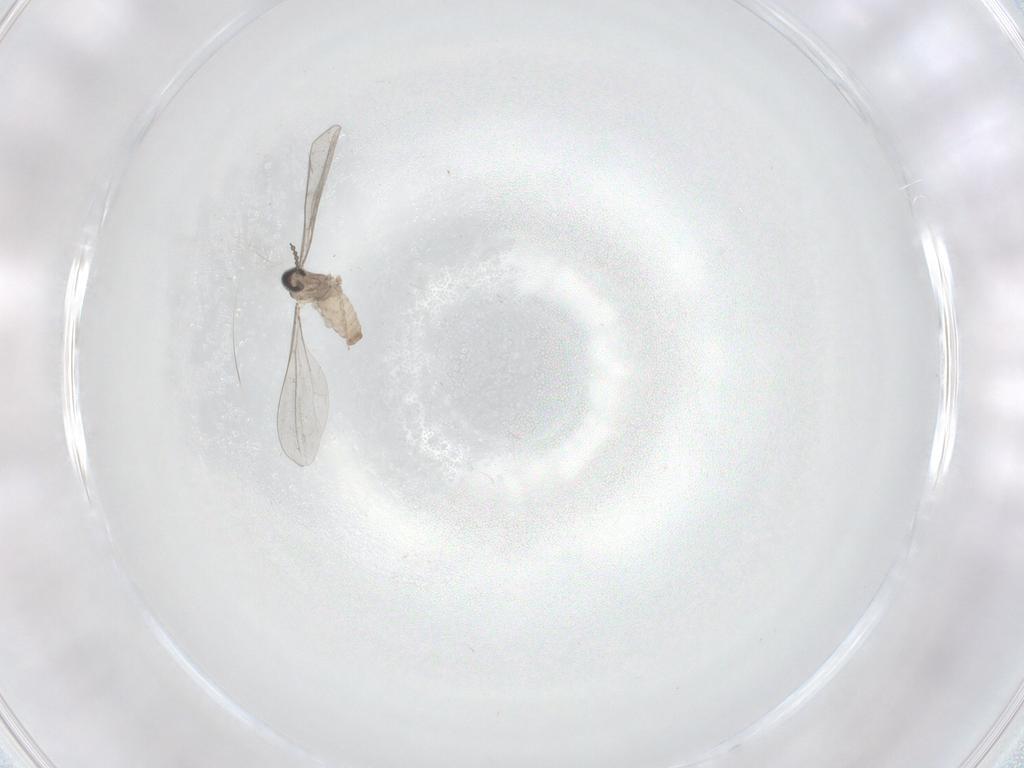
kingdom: Animalia
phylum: Arthropoda
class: Insecta
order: Diptera
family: Cecidomyiidae
